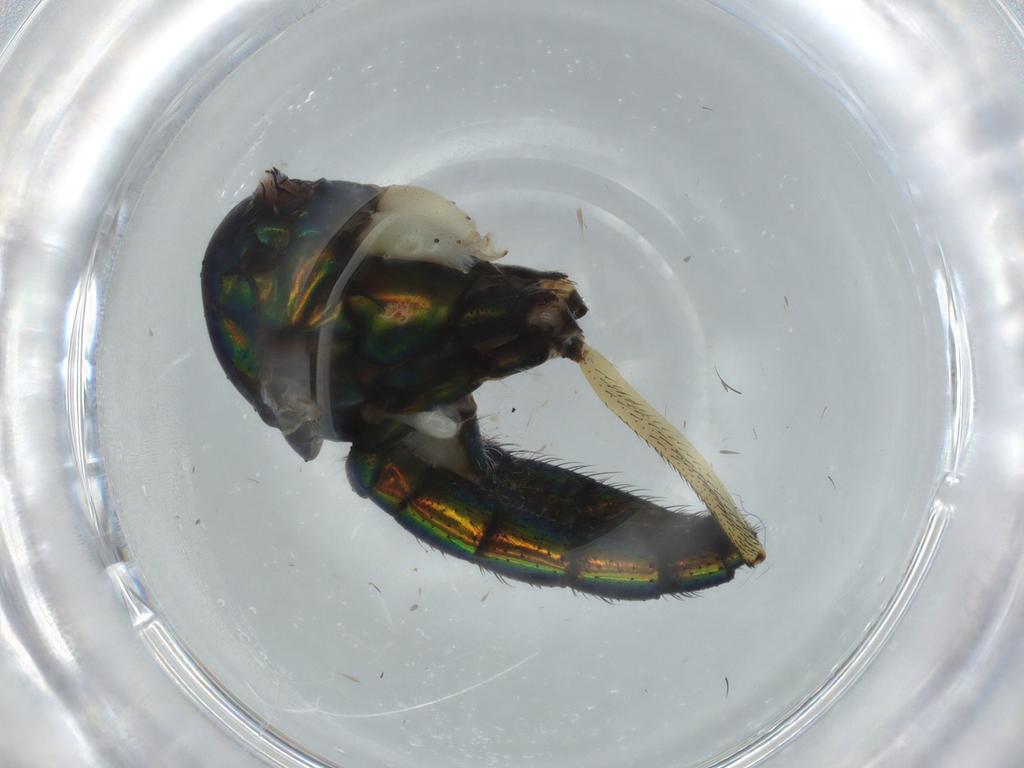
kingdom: Animalia
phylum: Arthropoda
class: Insecta
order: Diptera
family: Dolichopodidae
